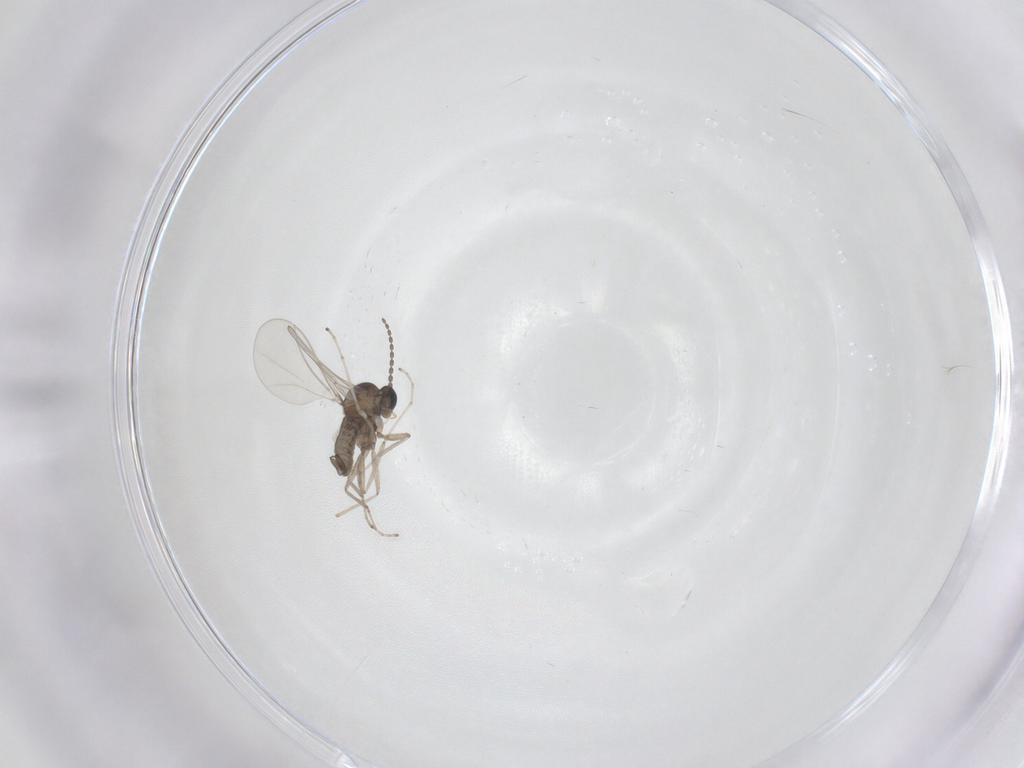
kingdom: Animalia
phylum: Arthropoda
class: Insecta
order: Diptera
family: Cecidomyiidae
